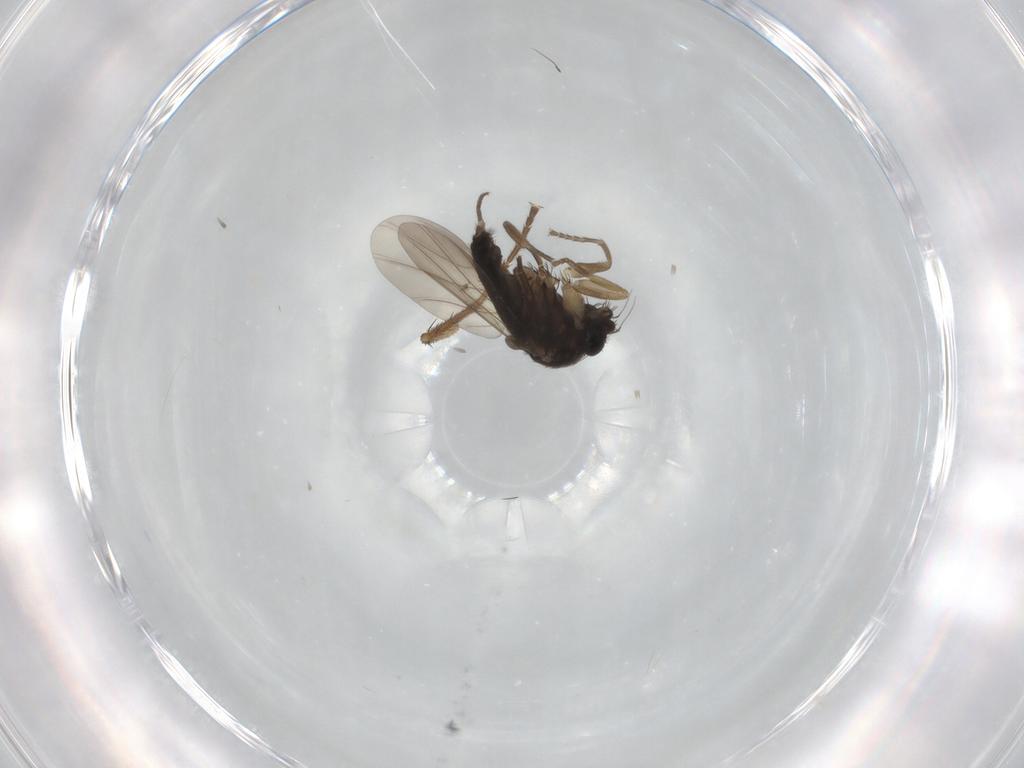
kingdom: Animalia
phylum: Arthropoda
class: Insecta
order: Diptera
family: Phoridae
